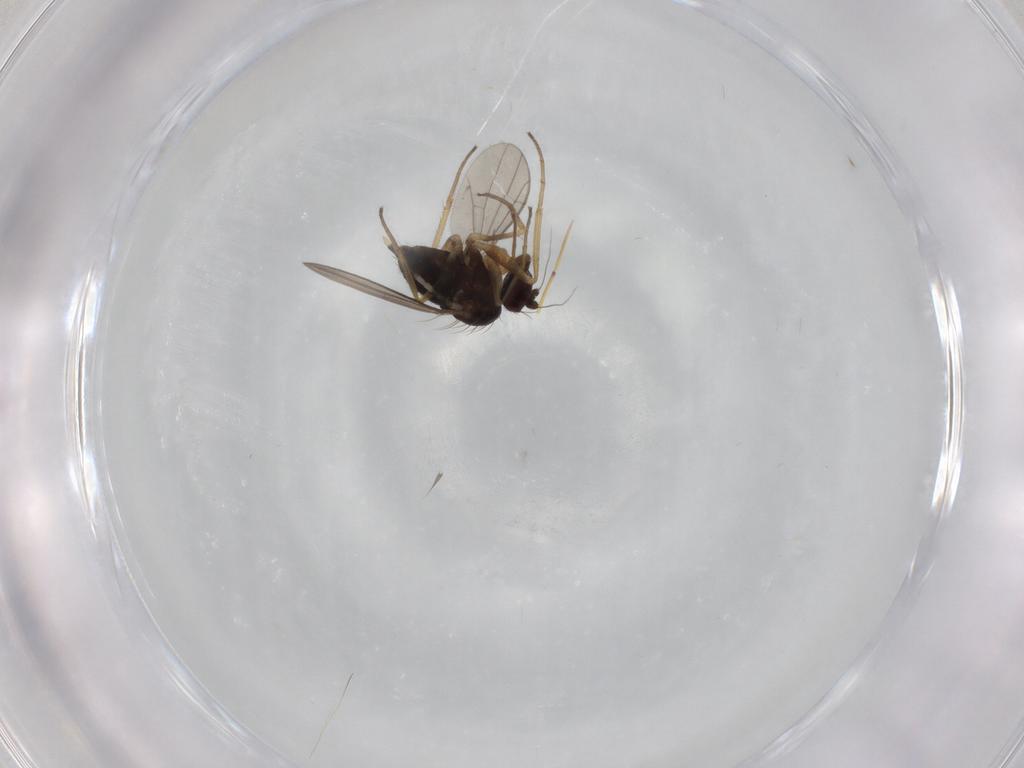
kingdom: Animalia
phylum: Arthropoda
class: Insecta
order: Diptera
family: Dolichopodidae
